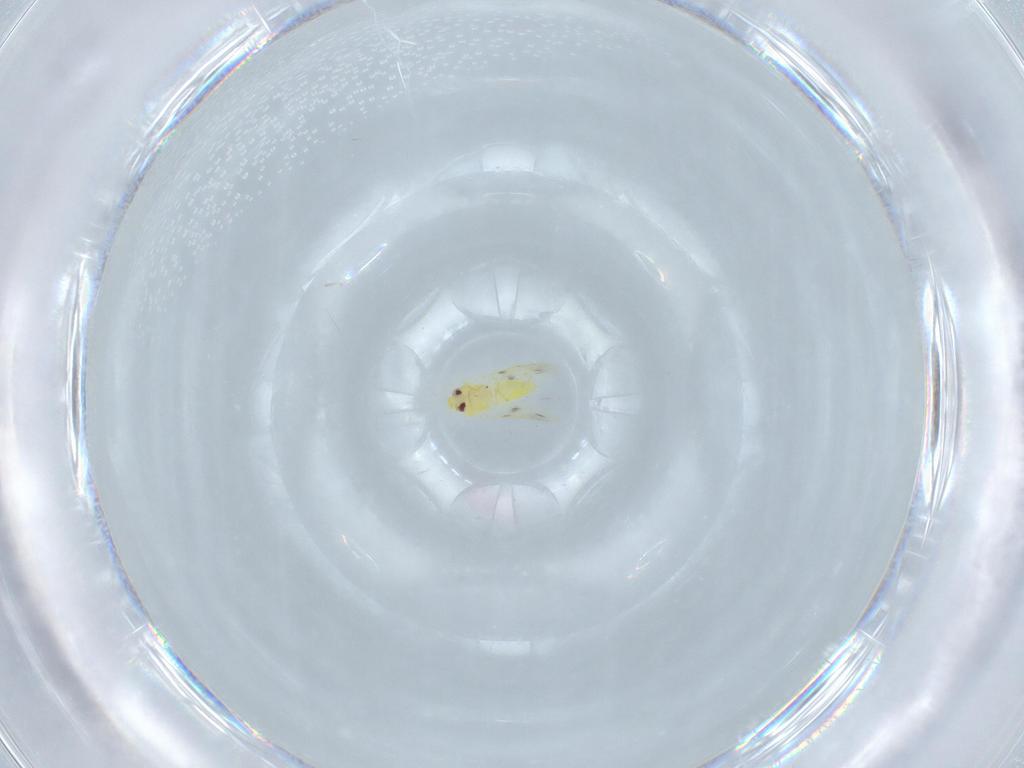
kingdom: Animalia
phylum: Arthropoda
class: Insecta
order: Hemiptera
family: Aleyrodidae
